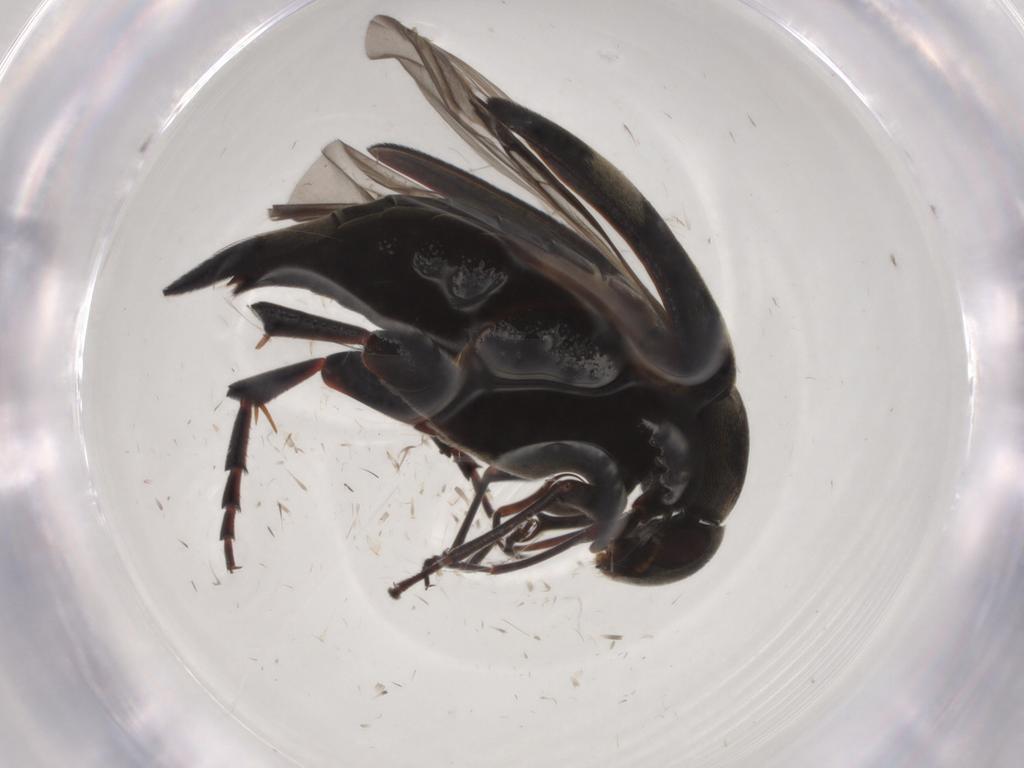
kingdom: Animalia
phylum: Arthropoda
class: Insecta
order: Coleoptera
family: Mordellidae
